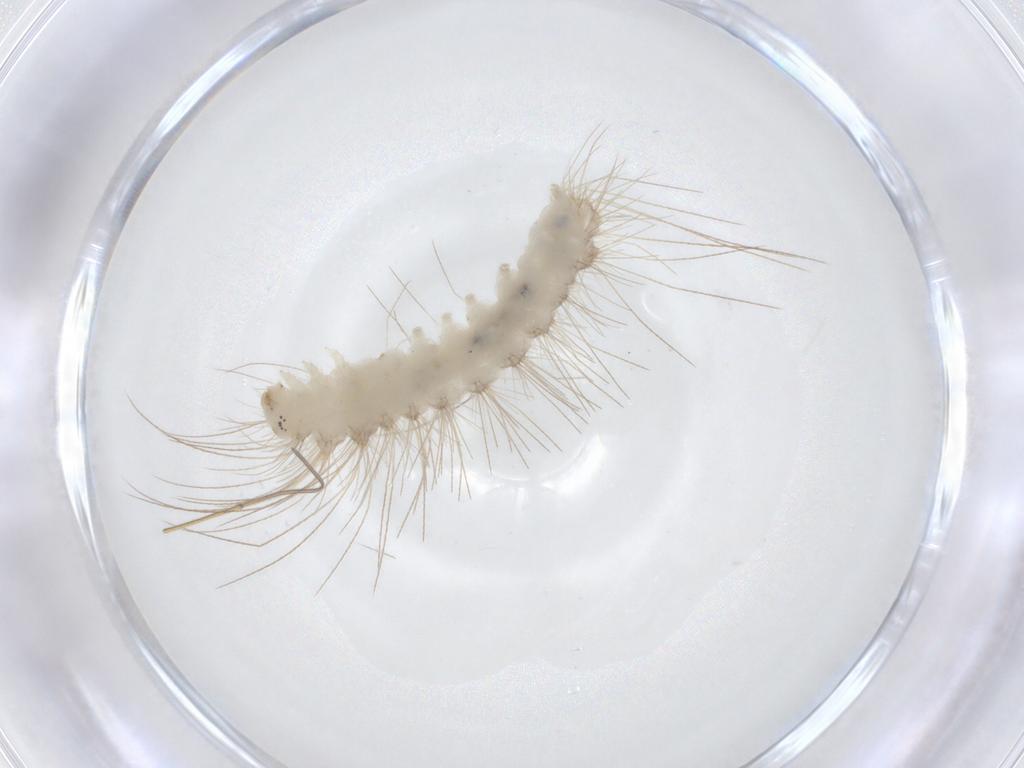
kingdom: Animalia
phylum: Arthropoda
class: Insecta
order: Lepidoptera
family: Erebidae
